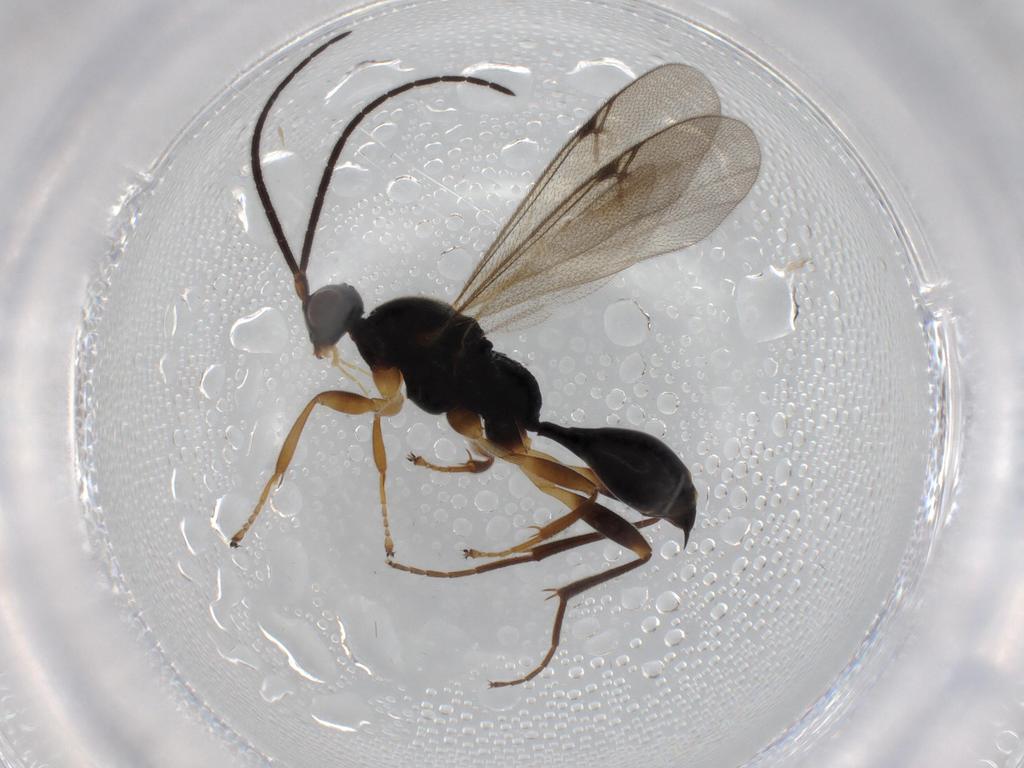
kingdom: Animalia
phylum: Arthropoda
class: Insecta
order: Hymenoptera
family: Proctotrupidae
